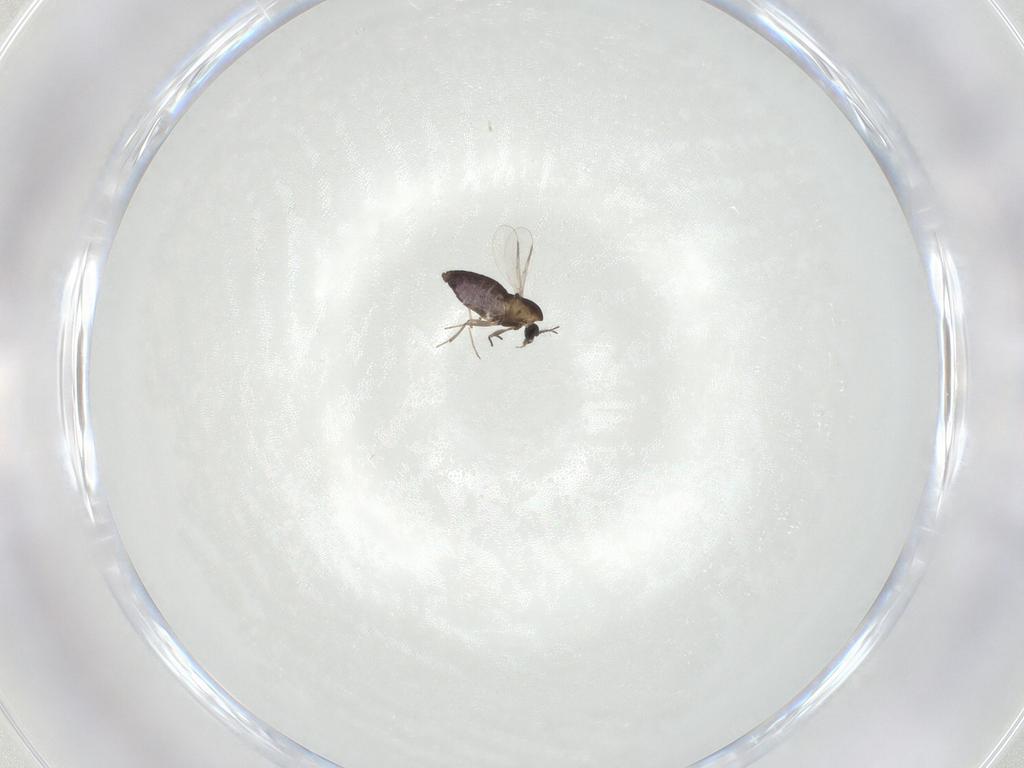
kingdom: Animalia
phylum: Arthropoda
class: Insecta
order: Diptera
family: Chironomidae
